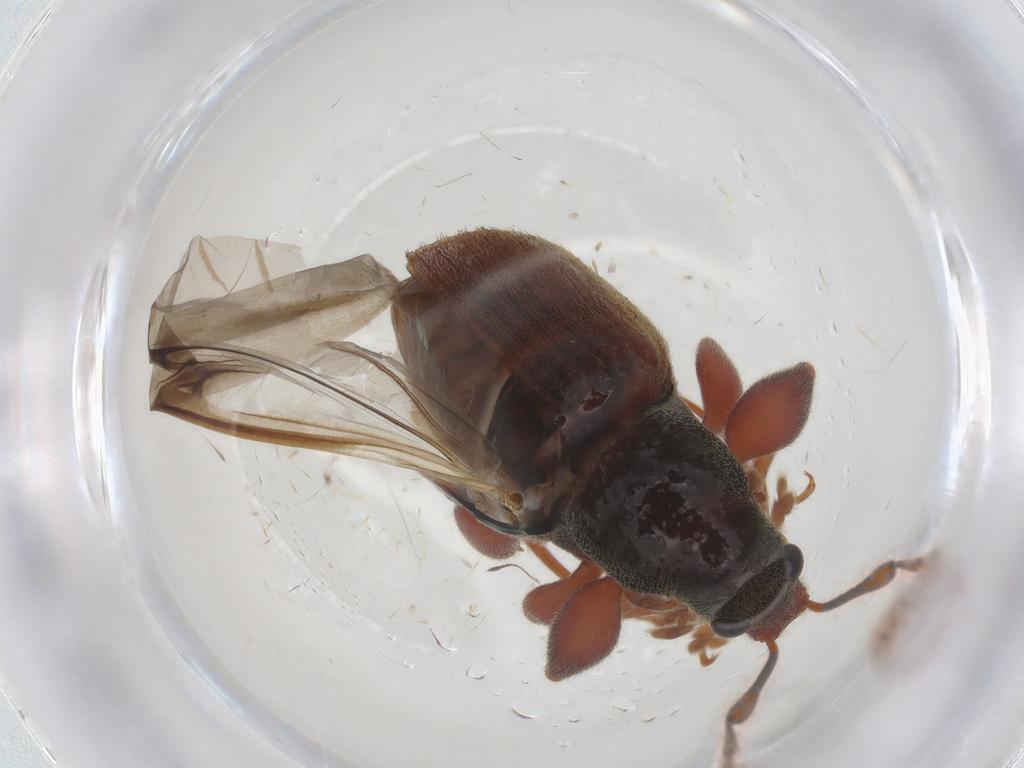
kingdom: Animalia
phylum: Arthropoda
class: Insecta
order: Coleoptera
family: Curculionidae
